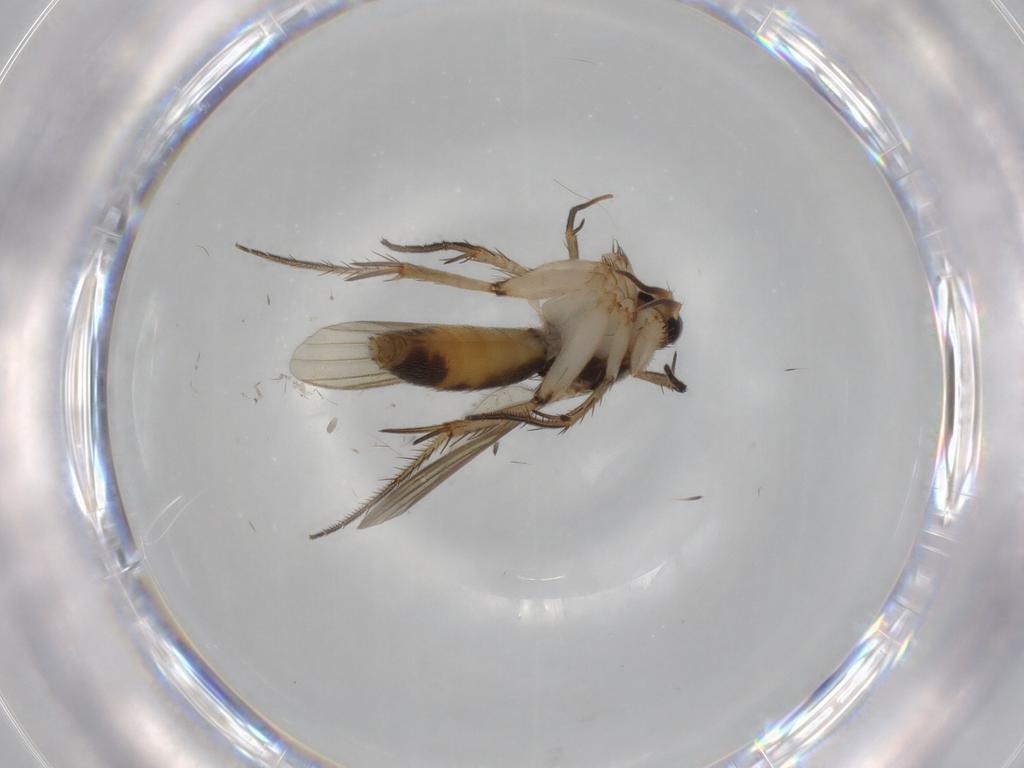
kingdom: Animalia
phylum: Arthropoda
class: Insecta
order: Diptera
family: Mycetophilidae
